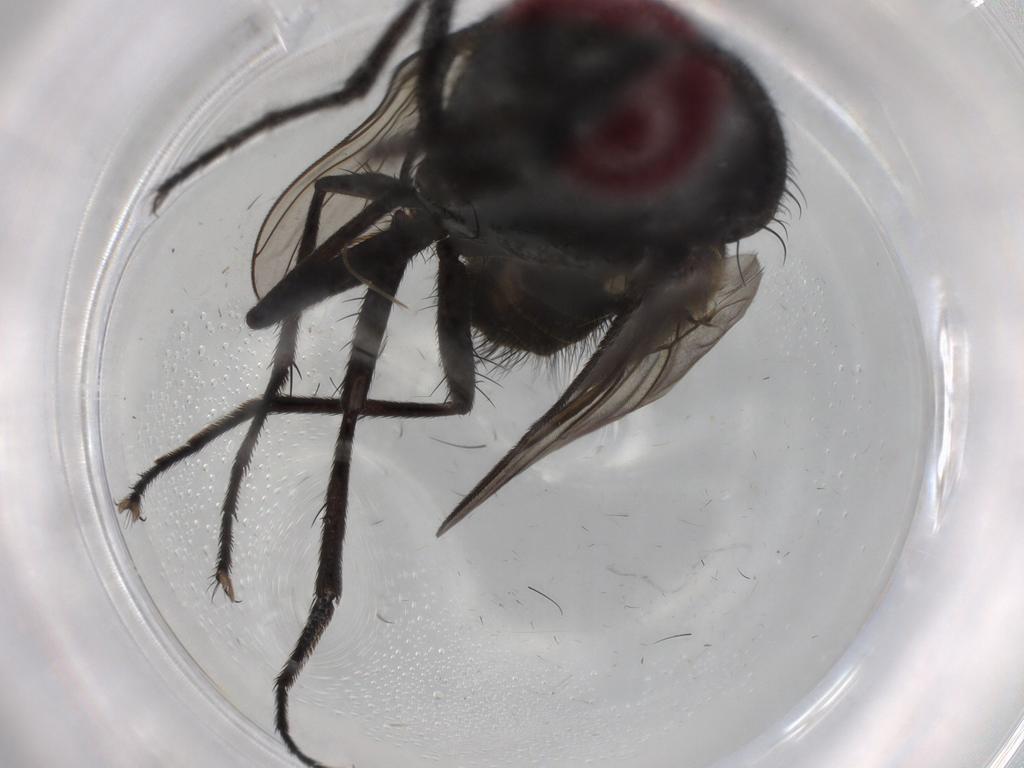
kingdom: Animalia
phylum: Arthropoda
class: Insecta
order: Diptera
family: Muscidae
